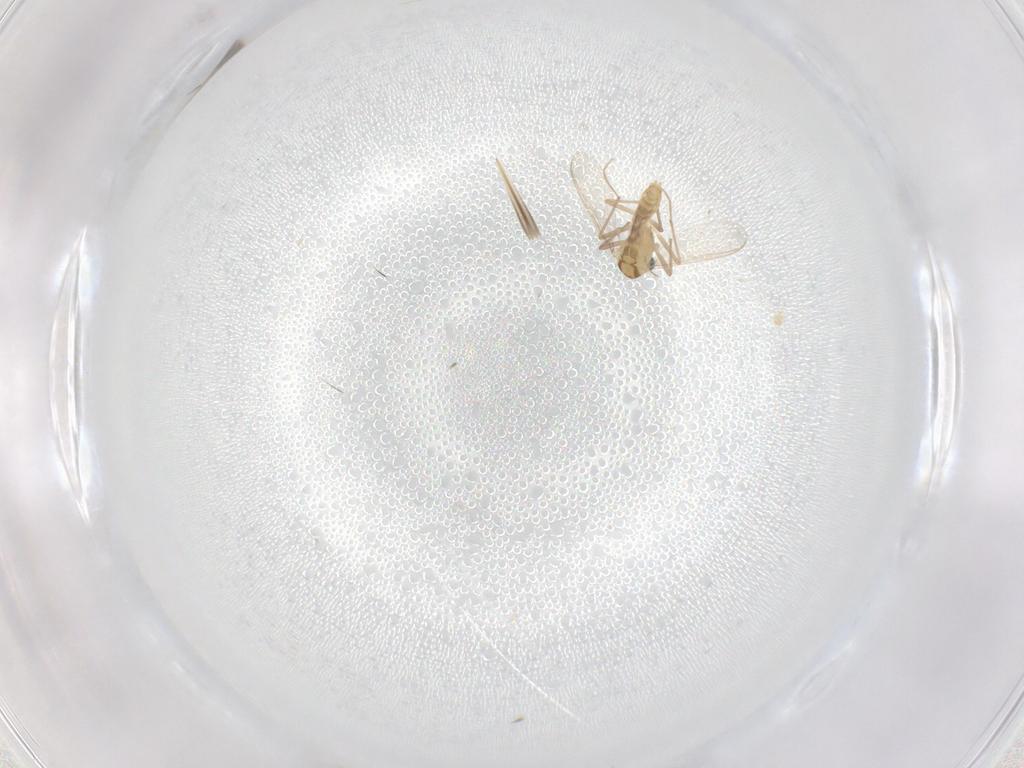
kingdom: Animalia
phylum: Arthropoda
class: Insecta
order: Diptera
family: Chironomidae
